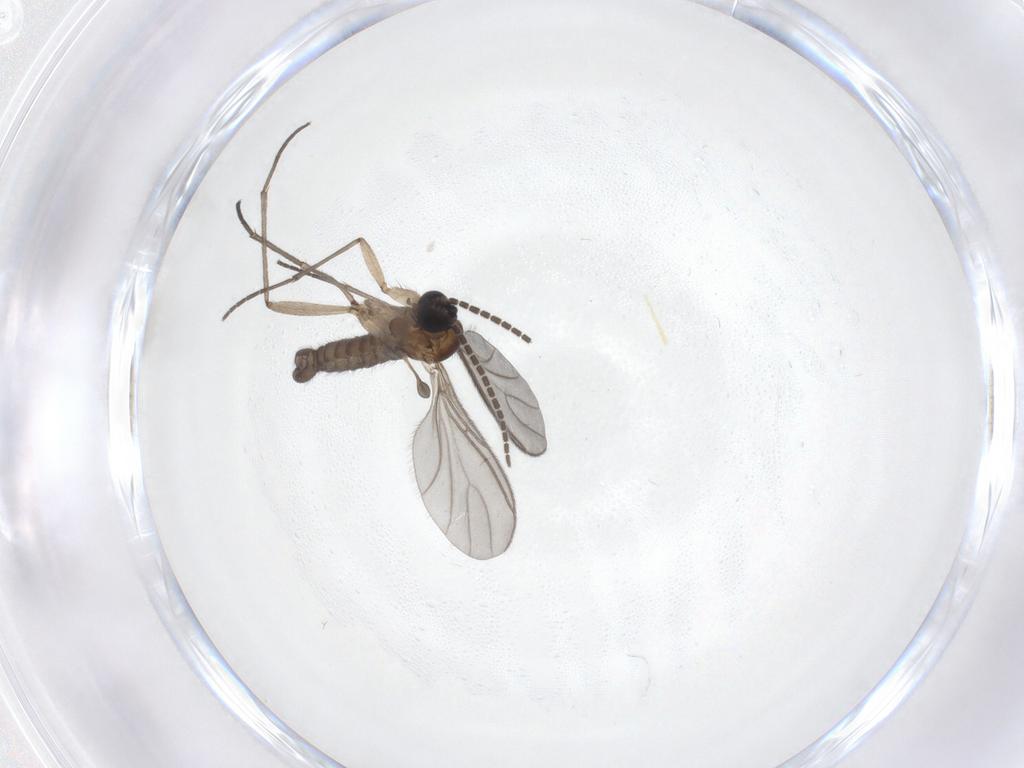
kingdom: Animalia
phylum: Arthropoda
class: Insecta
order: Diptera
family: Sciaridae
